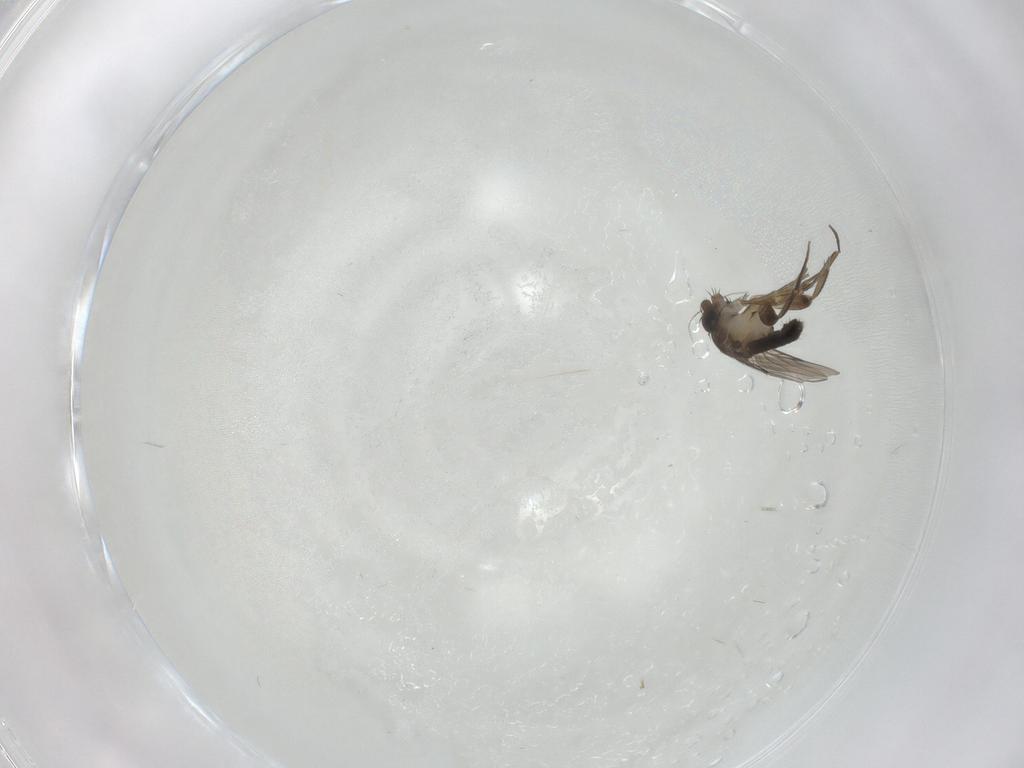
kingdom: Animalia
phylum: Arthropoda
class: Insecta
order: Diptera
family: Phoridae
